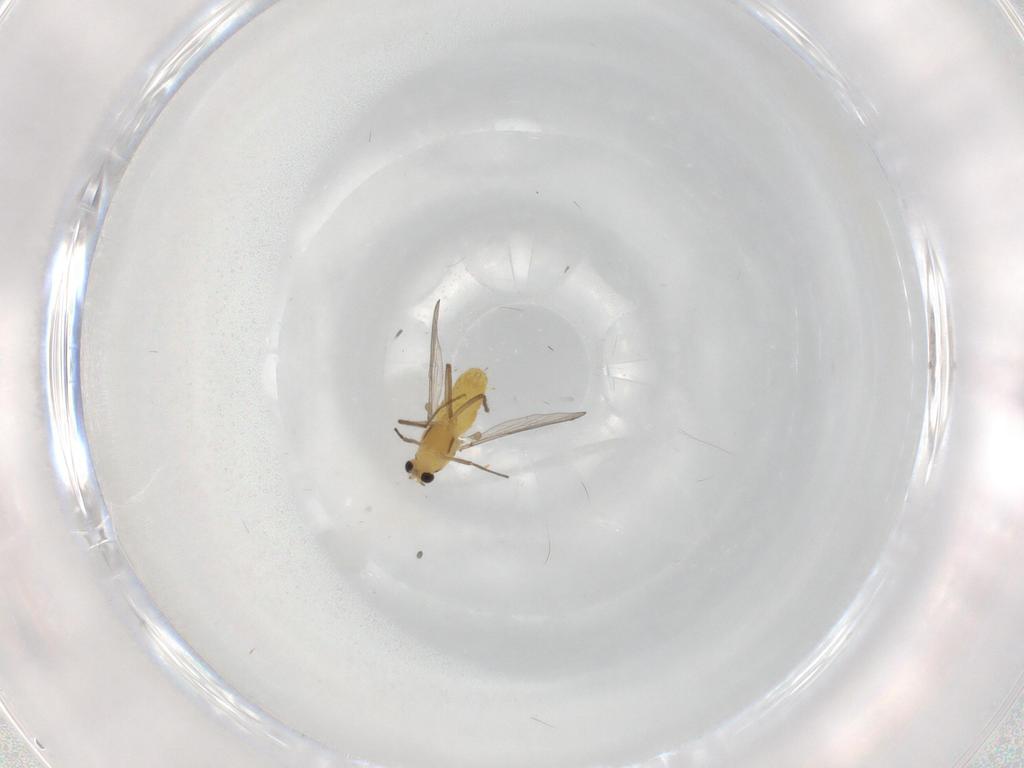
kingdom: Animalia
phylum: Arthropoda
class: Insecta
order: Diptera
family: Chironomidae
